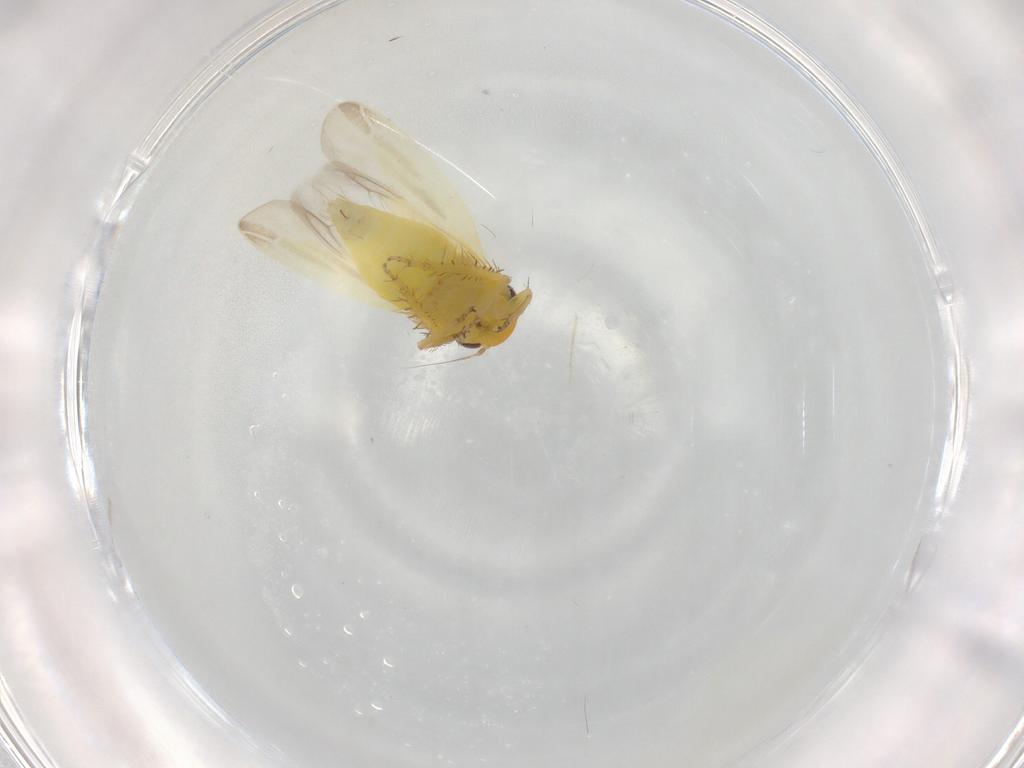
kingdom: Animalia
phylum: Arthropoda
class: Insecta
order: Hemiptera
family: Cicadellidae
